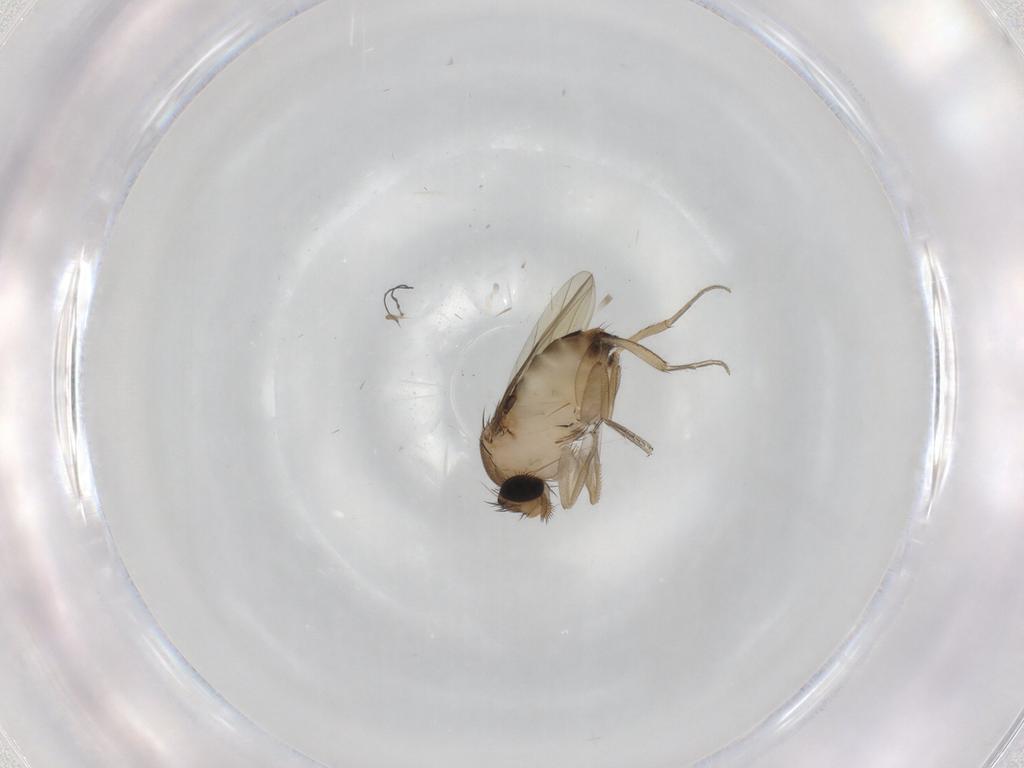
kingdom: Animalia
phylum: Arthropoda
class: Insecta
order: Diptera
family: Phoridae
